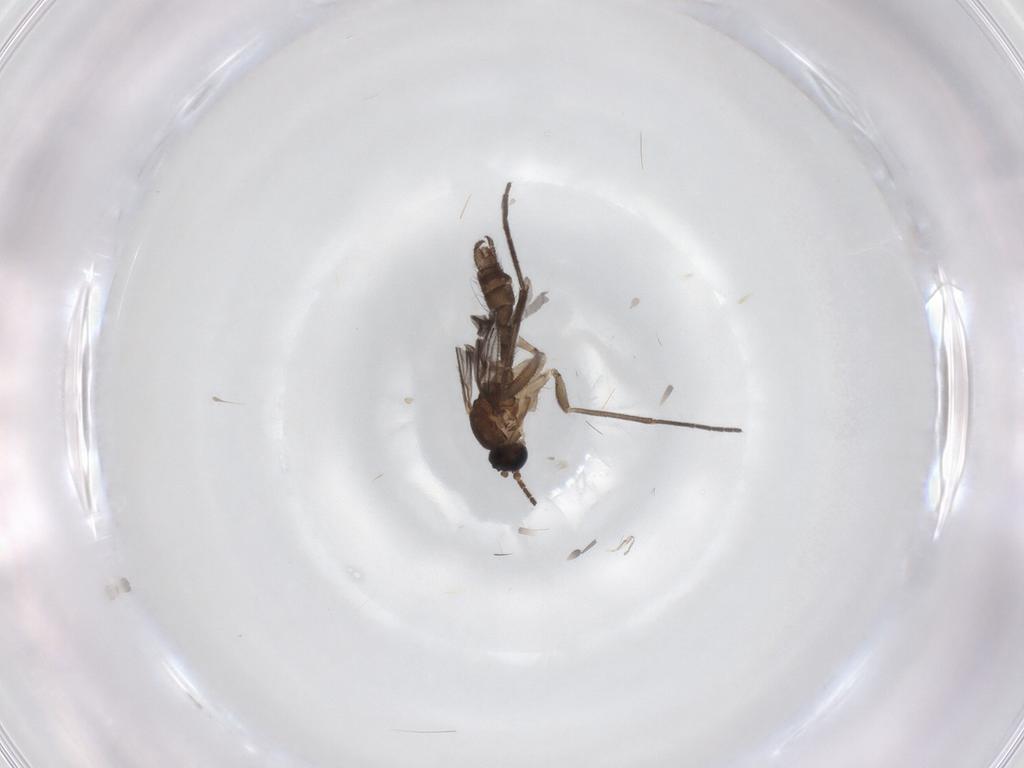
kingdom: Animalia
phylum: Arthropoda
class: Insecta
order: Diptera
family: Sciaridae
